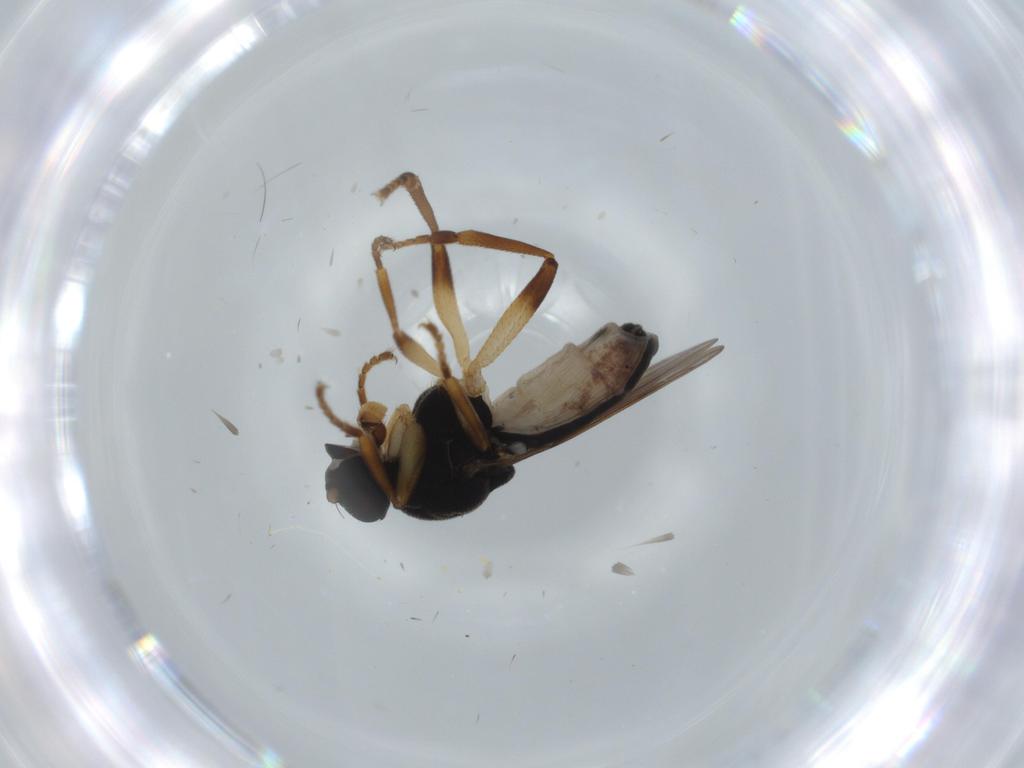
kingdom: Animalia
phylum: Arthropoda
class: Insecta
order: Diptera
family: Sphaeroceridae
